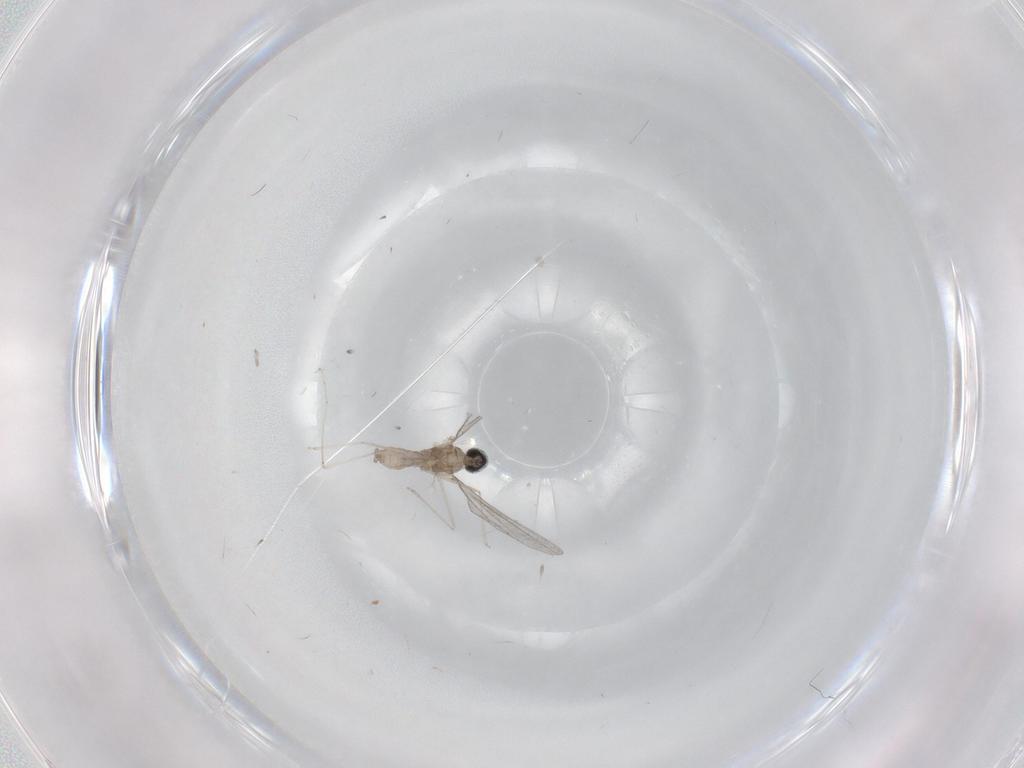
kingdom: Animalia
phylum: Arthropoda
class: Insecta
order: Diptera
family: Cecidomyiidae
